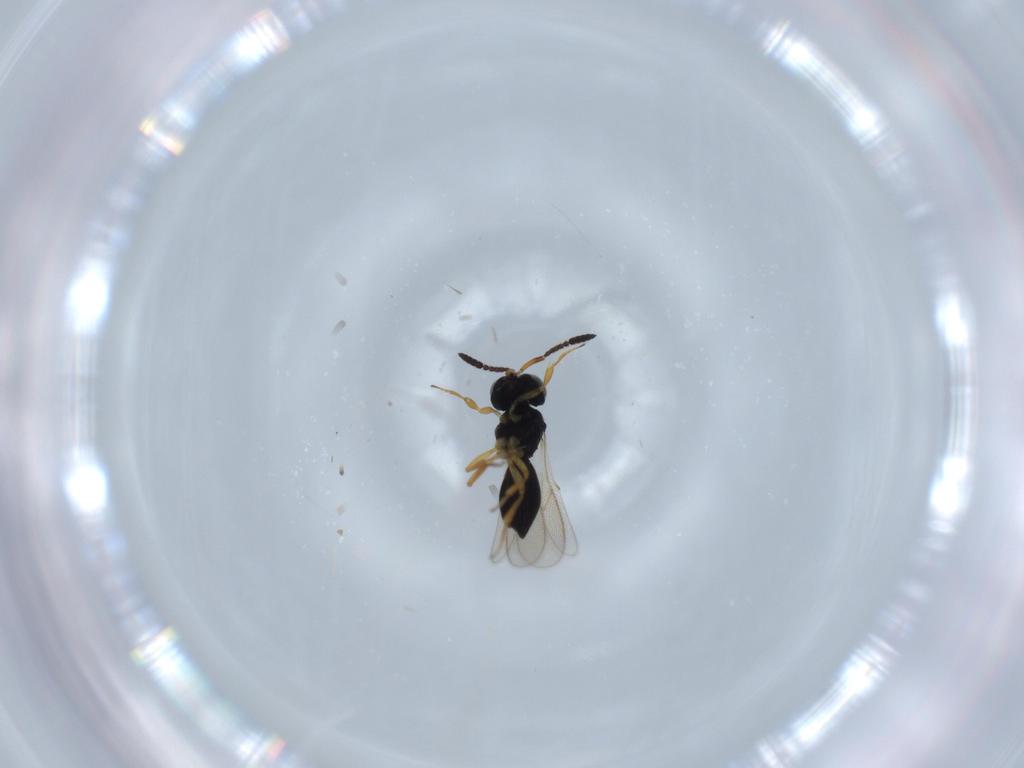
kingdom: Animalia
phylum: Arthropoda
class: Insecta
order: Hymenoptera
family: Scelionidae
